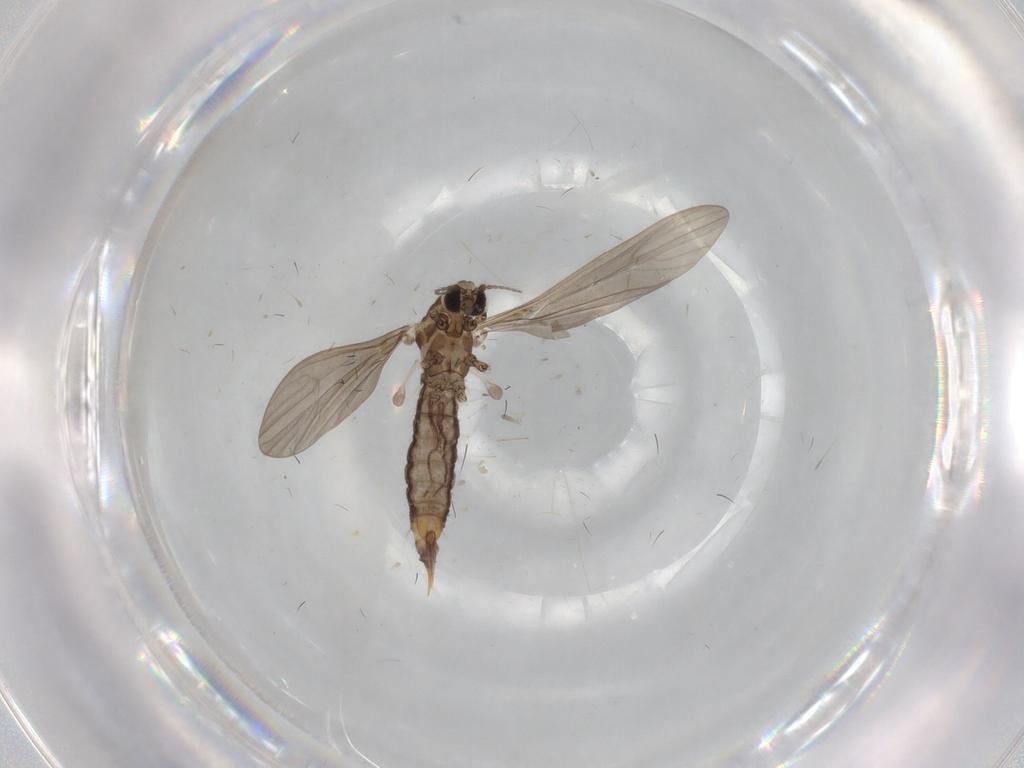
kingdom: Animalia
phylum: Arthropoda
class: Insecta
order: Diptera
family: Limoniidae
